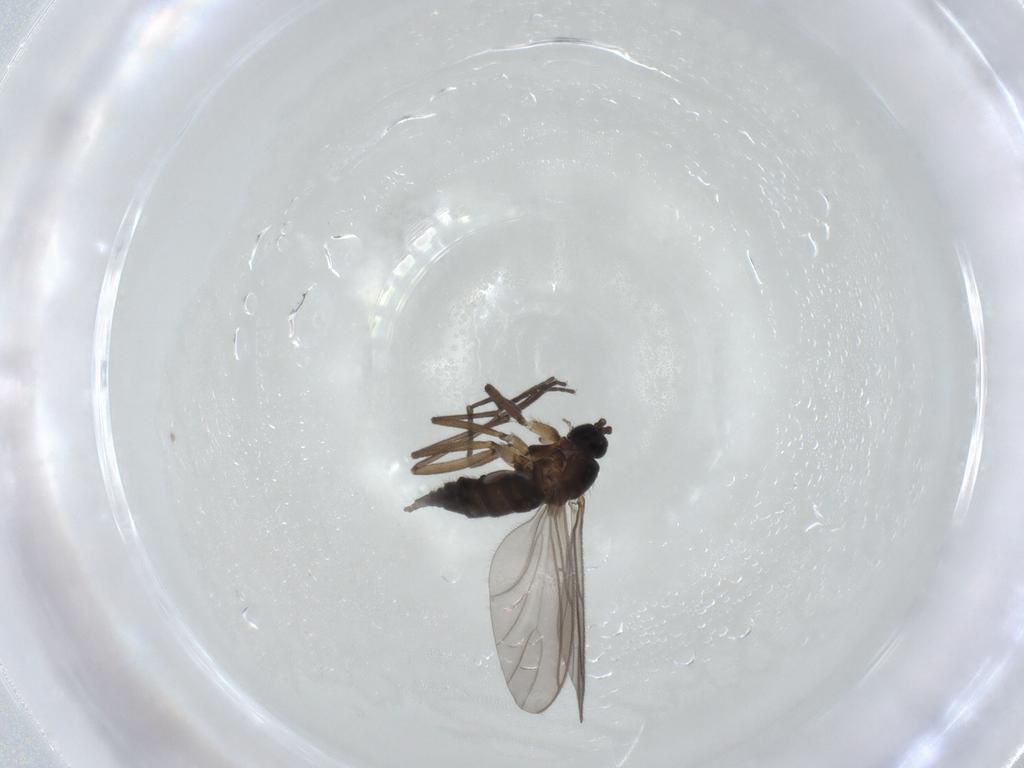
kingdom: Animalia
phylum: Arthropoda
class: Insecta
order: Diptera
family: Sciaridae
